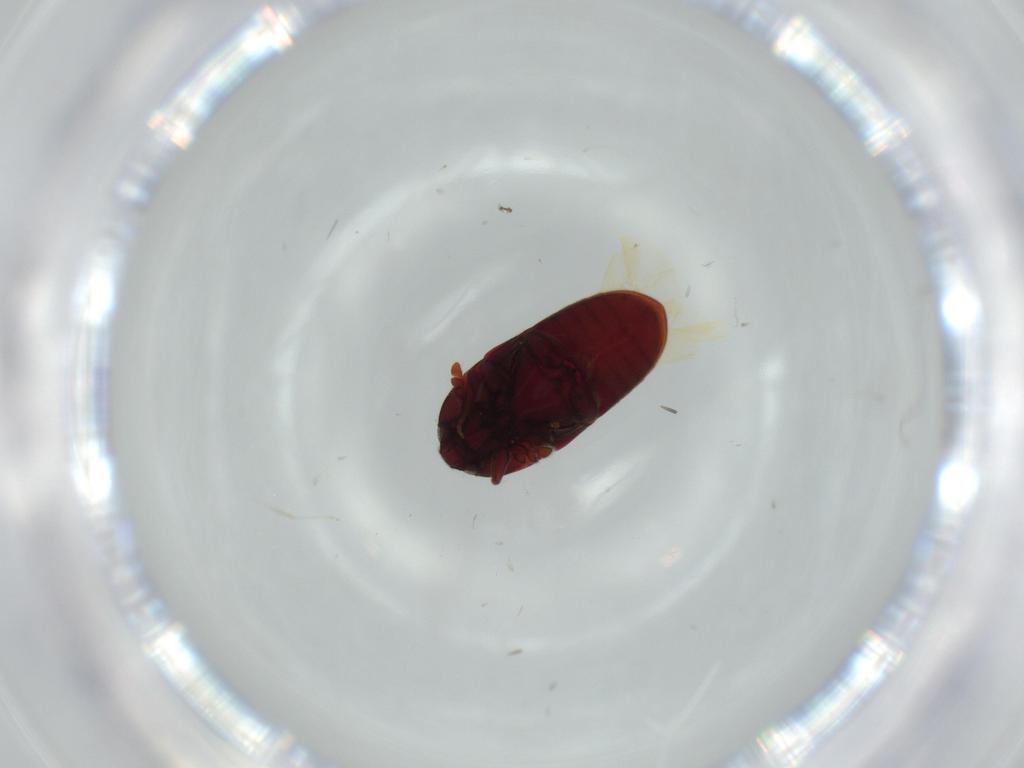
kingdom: Animalia
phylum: Arthropoda
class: Insecta
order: Coleoptera
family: Throscidae
